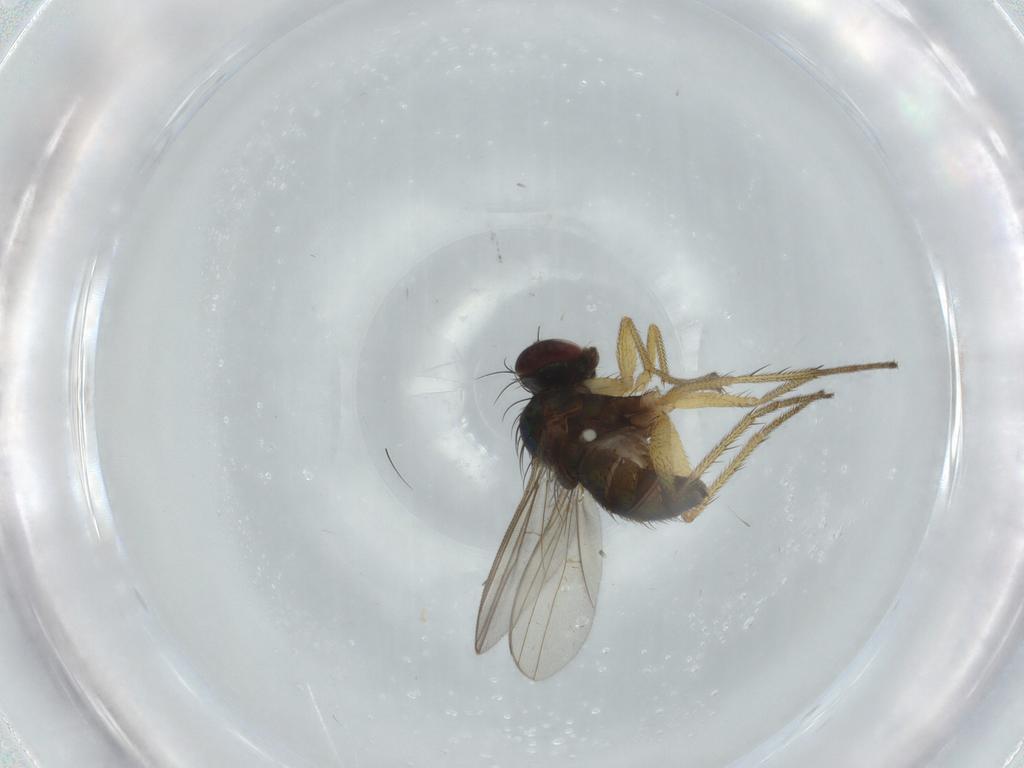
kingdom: Animalia
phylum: Arthropoda
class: Insecta
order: Diptera
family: Dolichopodidae
